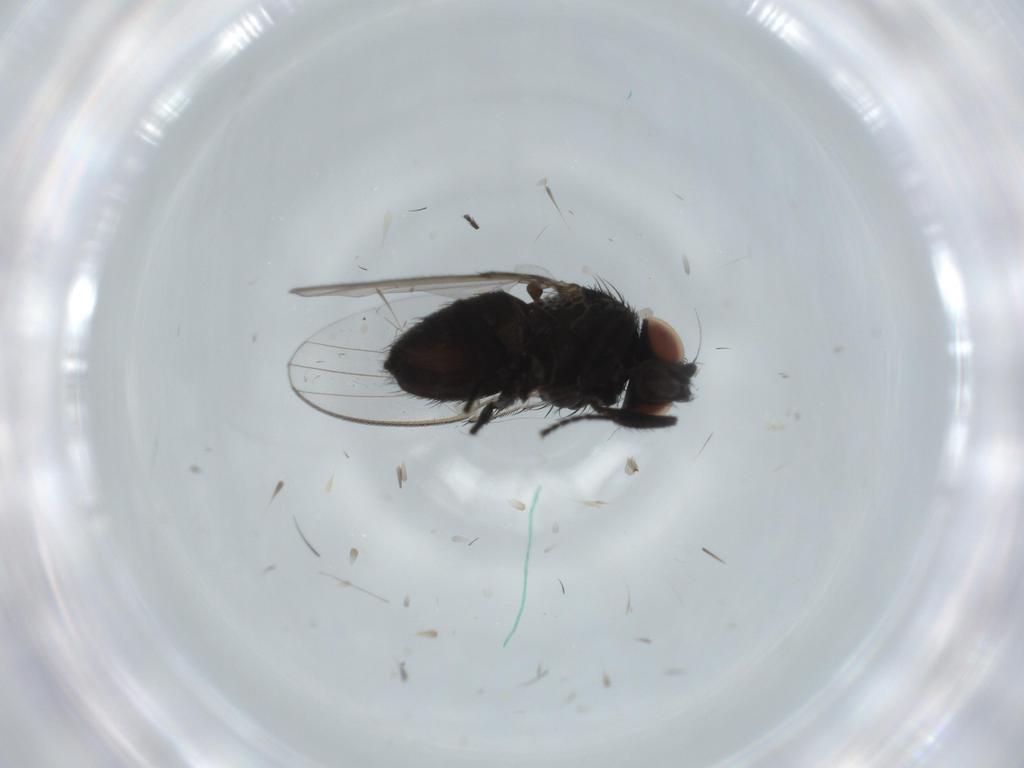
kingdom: Animalia
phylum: Arthropoda
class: Insecta
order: Diptera
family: Milichiidae
